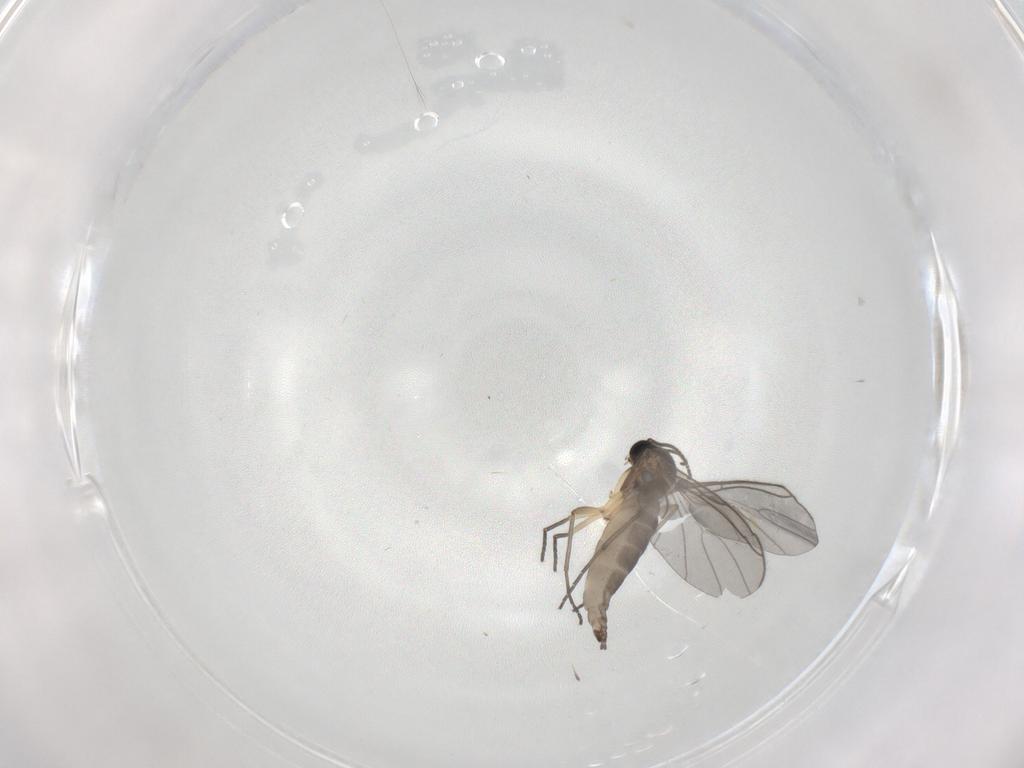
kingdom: Animalia
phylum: Arthropoda
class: Insecta
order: Diptera
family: Sciaridae
